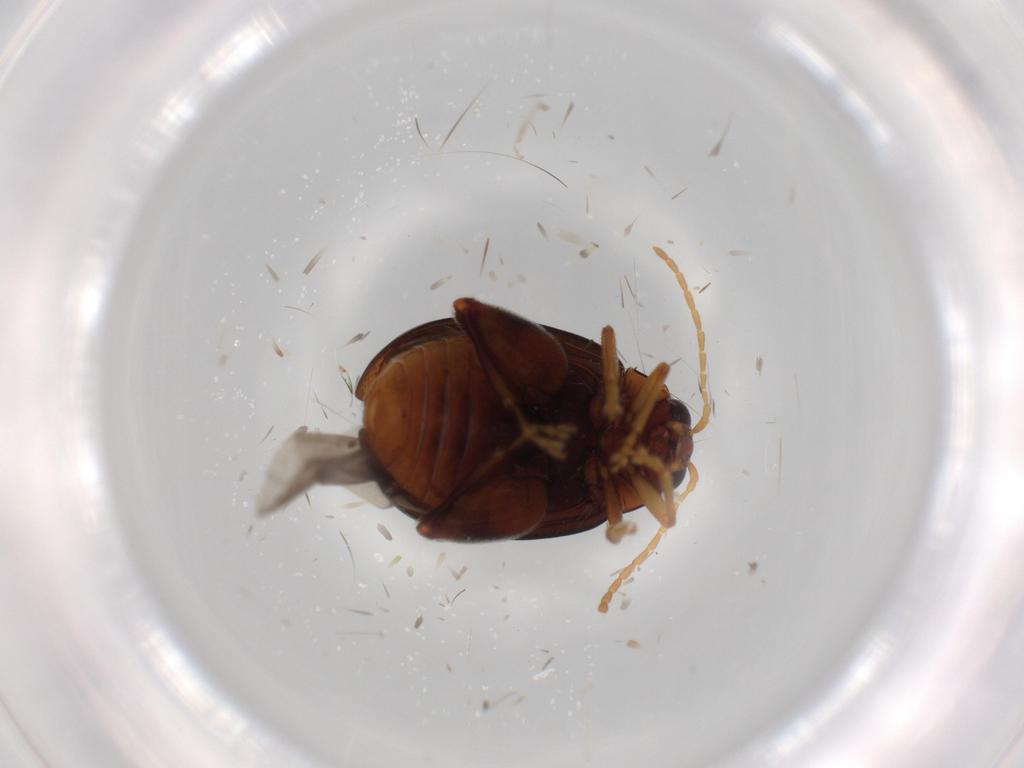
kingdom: Animalia
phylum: Arthropoda
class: Insecta
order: Coleoptera
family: Chrysomelidae
